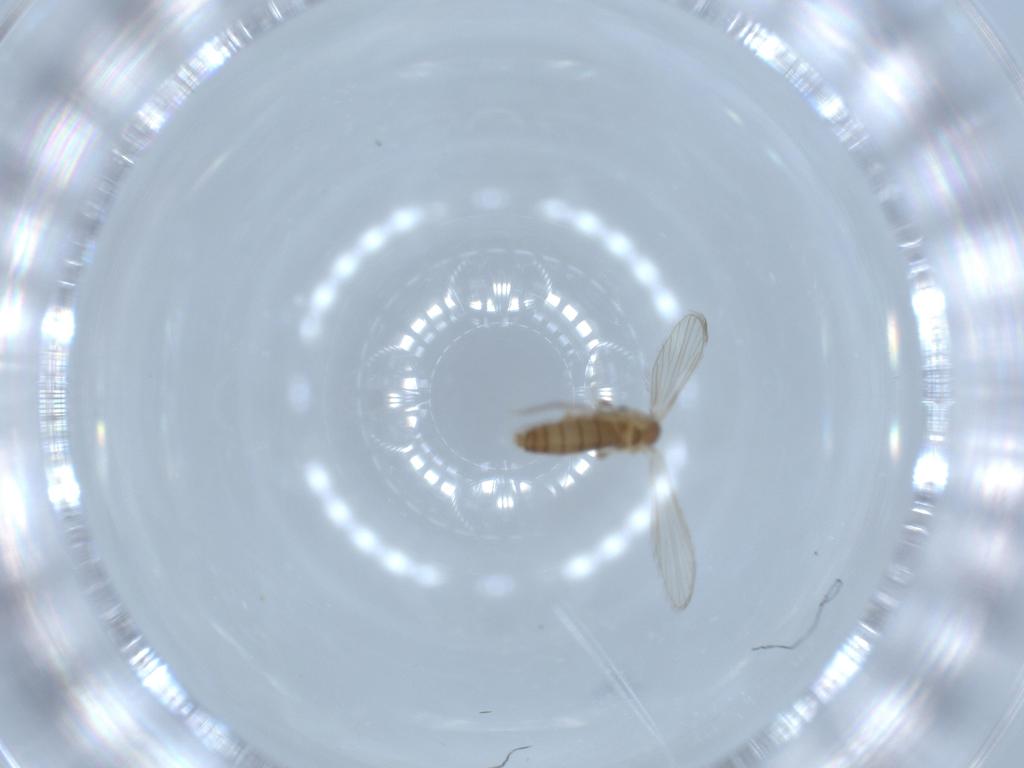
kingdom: Animalia
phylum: Arthropoda
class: Insecta
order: Diptera
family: Psychodidae
